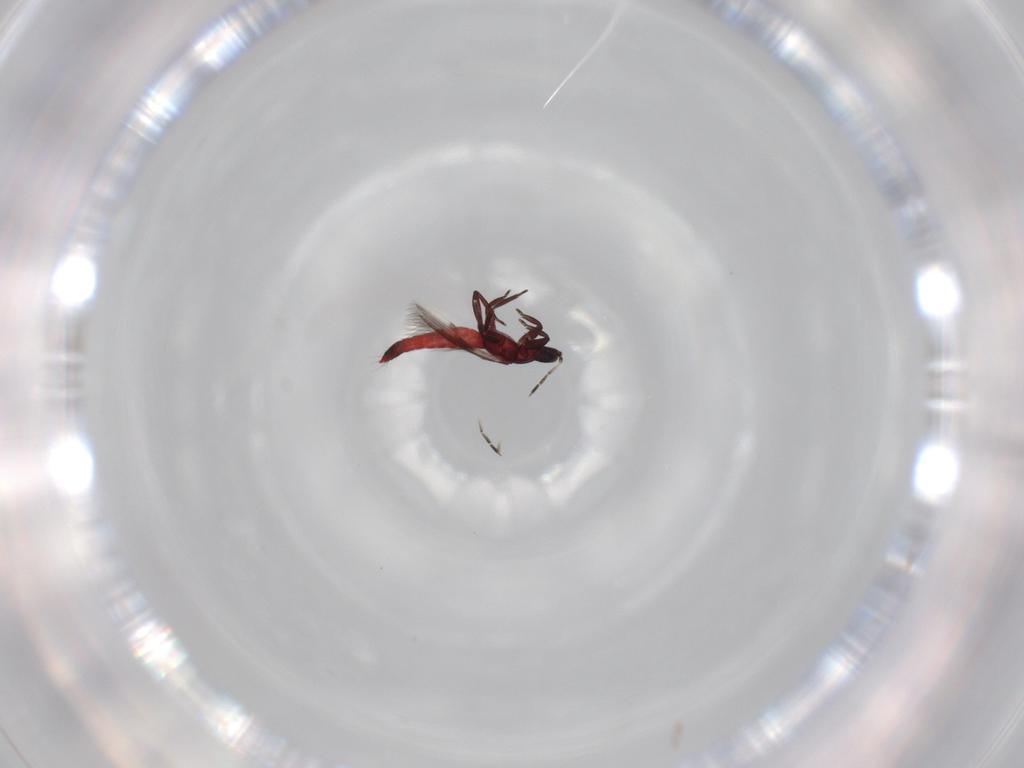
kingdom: Animalia
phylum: Arthropoda
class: Insecta
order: Thysanoptera
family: Aeolothripidae
